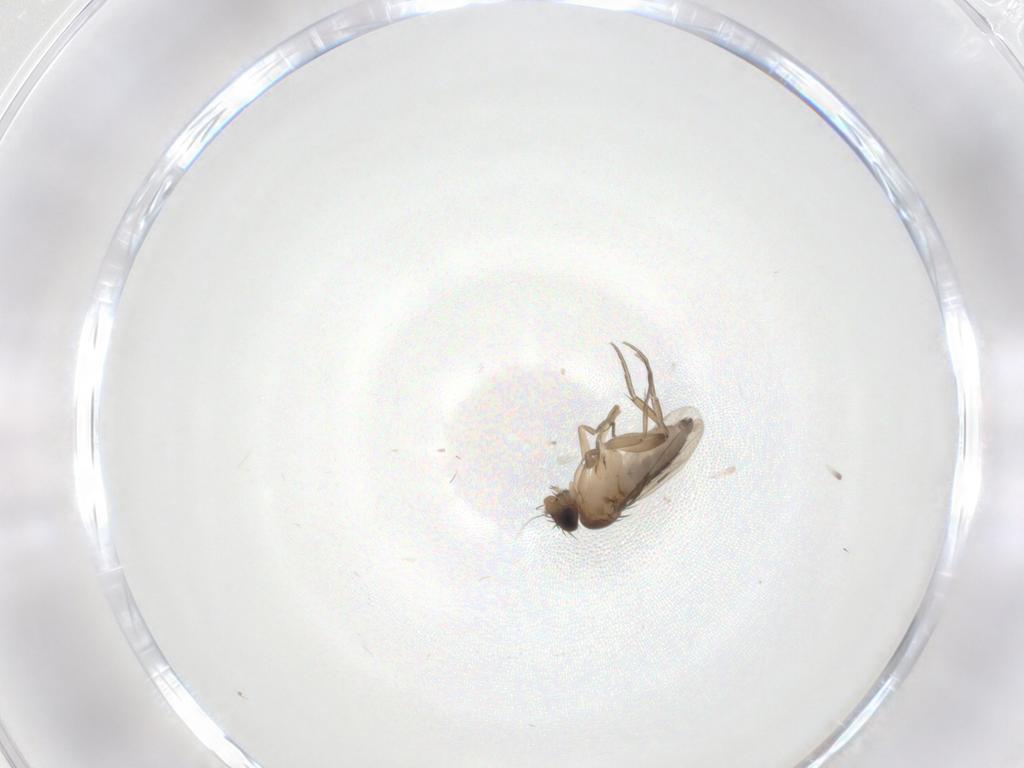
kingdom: Animalia
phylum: Arthropoda
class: Insecta
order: Diptera
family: Phoridae
